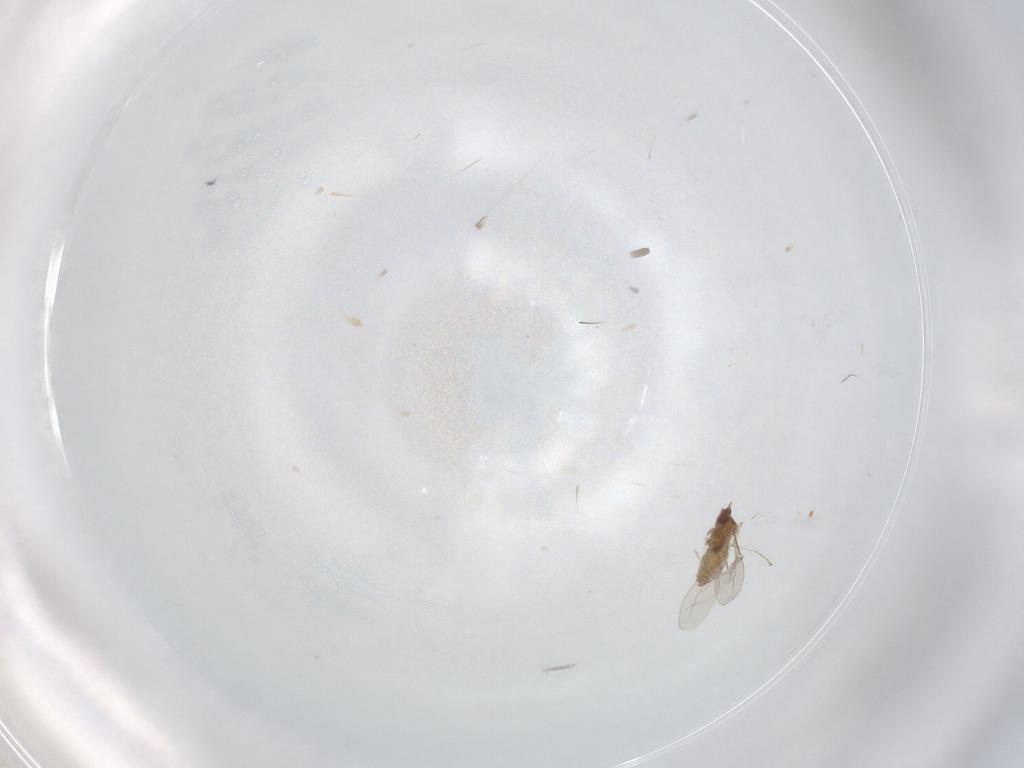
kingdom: Animalia
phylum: Arthropoda
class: Insecta
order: Diptera
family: Cecidomyiidae
